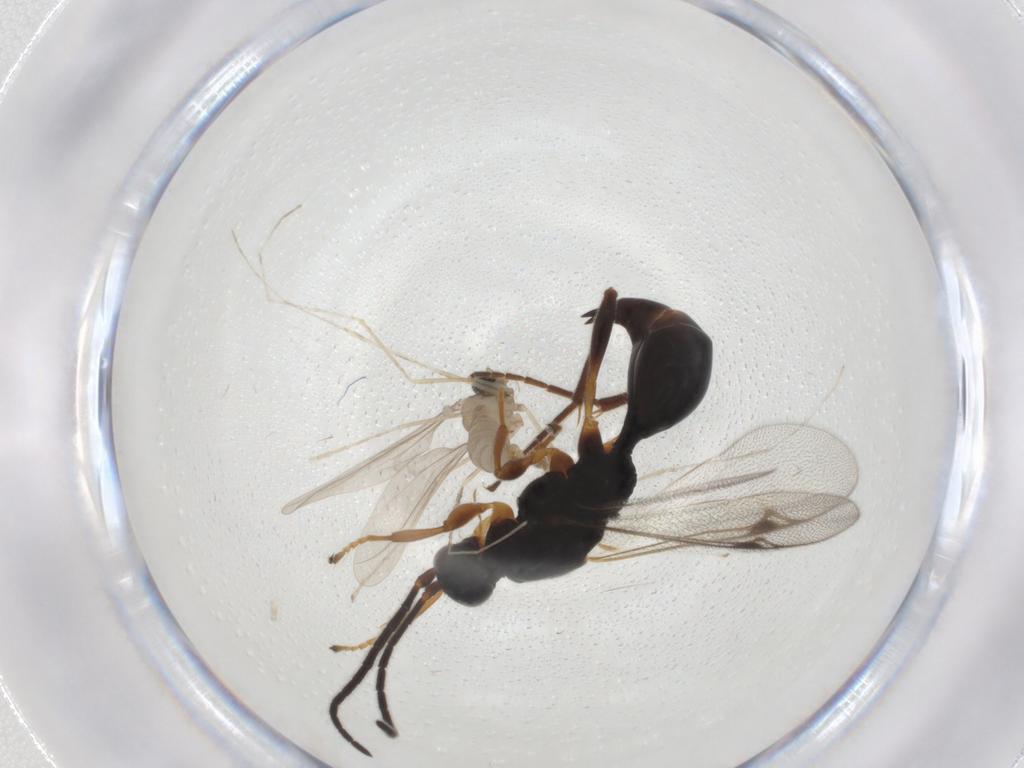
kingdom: Animalia
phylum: Arthropoda
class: Insecta
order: Diptera
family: Cecidomyiidae
